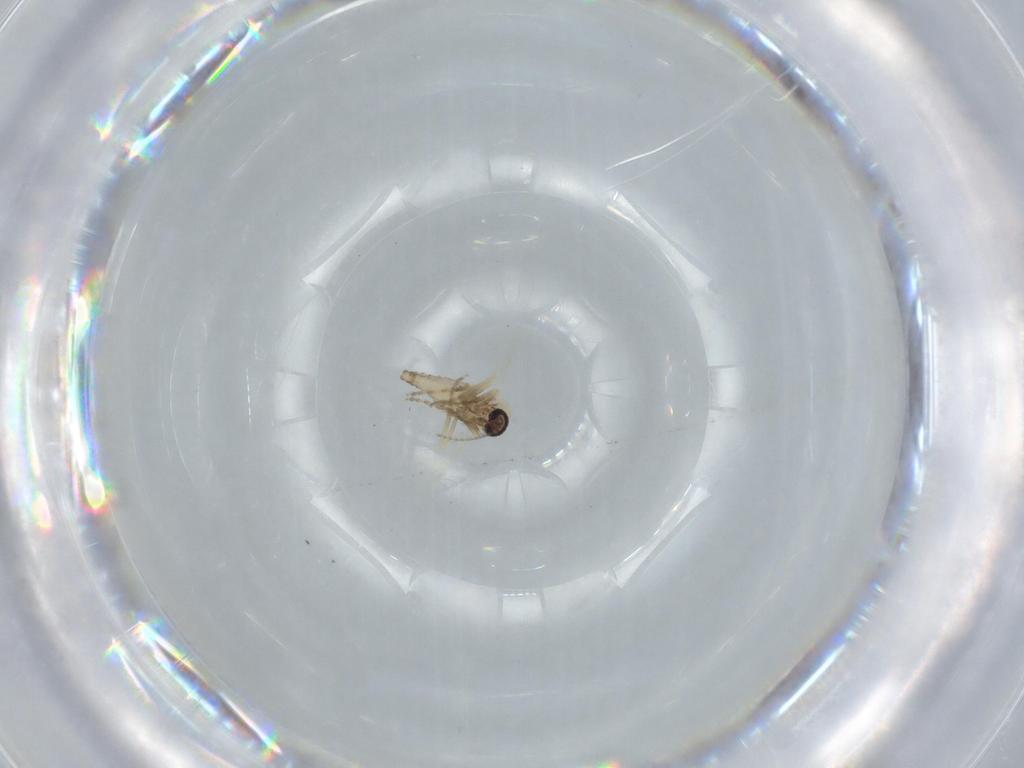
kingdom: Animalia
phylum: Arthropoda
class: Insecta
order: Diptera
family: Ceratopogonidae
